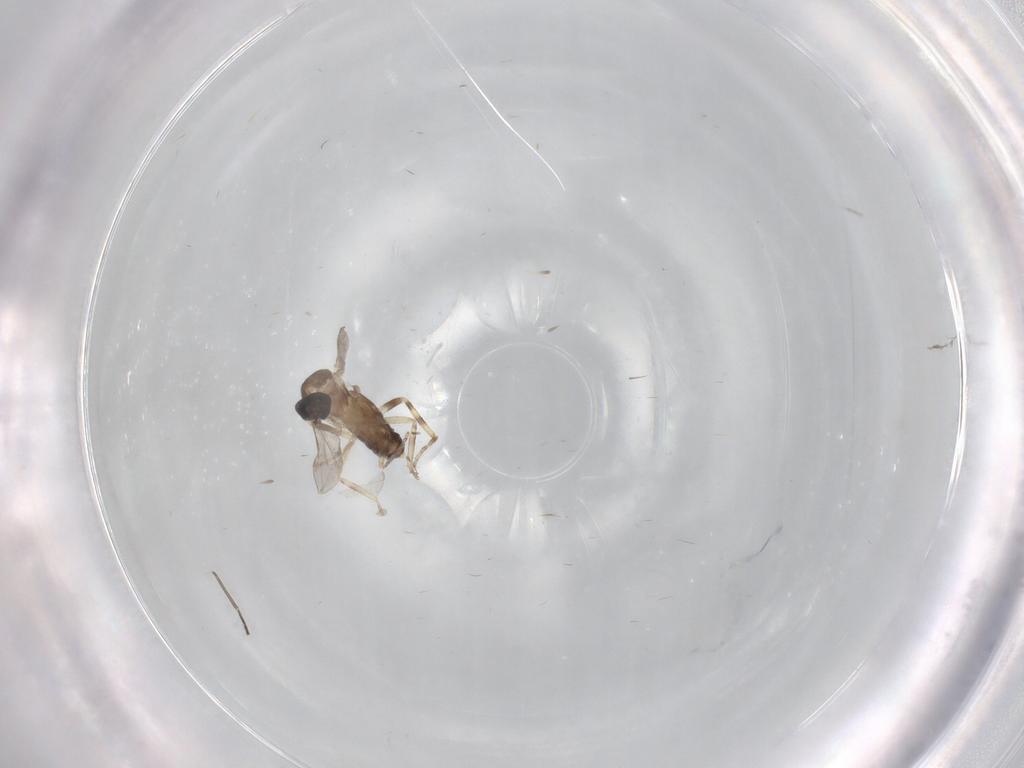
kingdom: Animalia
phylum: Arthropoda
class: Insecta
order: Diptera
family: Ceratopogonidae
